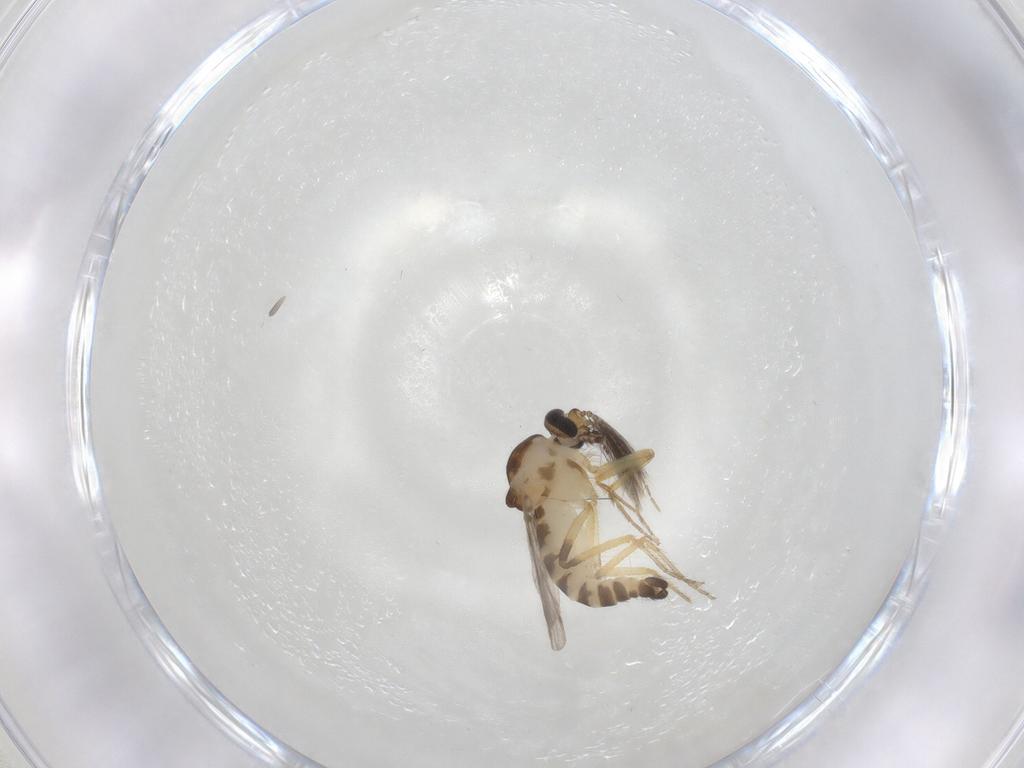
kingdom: Animalia
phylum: Arthropoda
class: Insecta
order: Diptera
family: Ceratopogonidae
